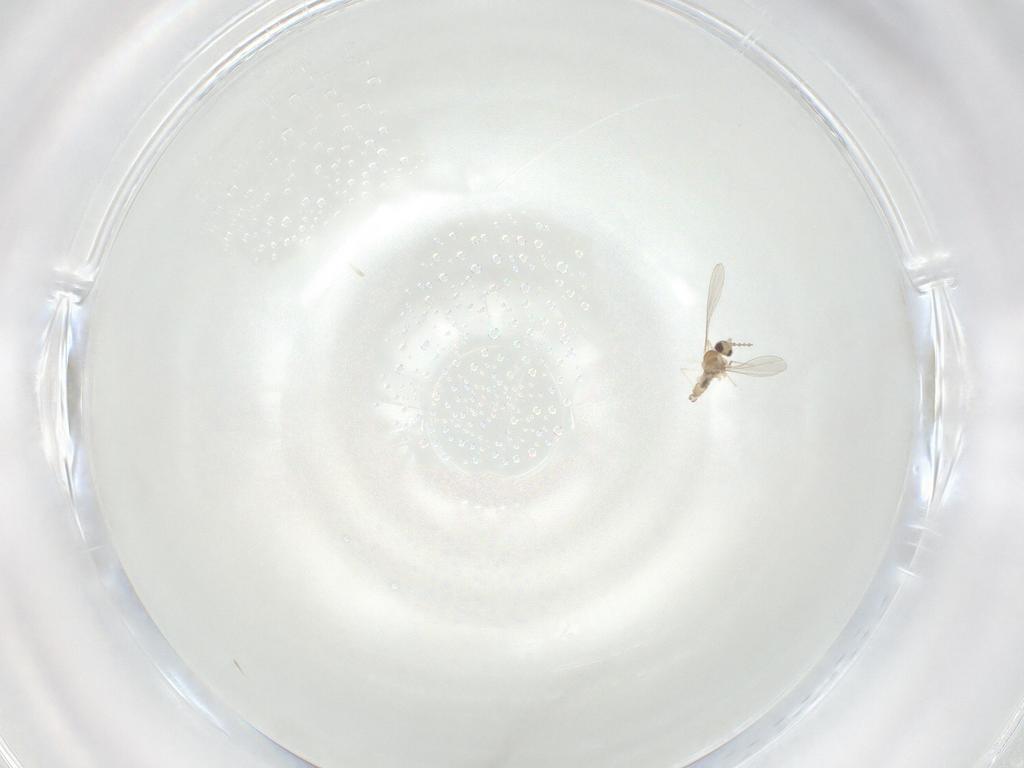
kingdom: Animalia
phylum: Arthropoda
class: Insecta
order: Diptera
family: Cecidomyiidae
